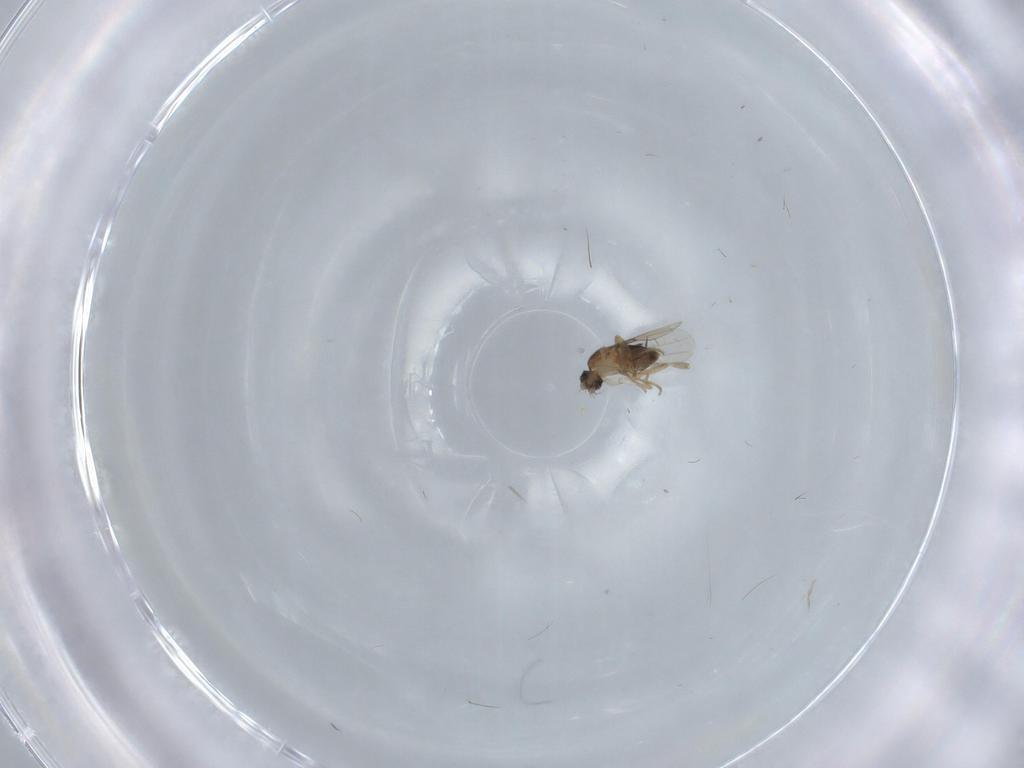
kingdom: Animalia
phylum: Arthropoda
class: Insecta
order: Diptera
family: Phoridae
